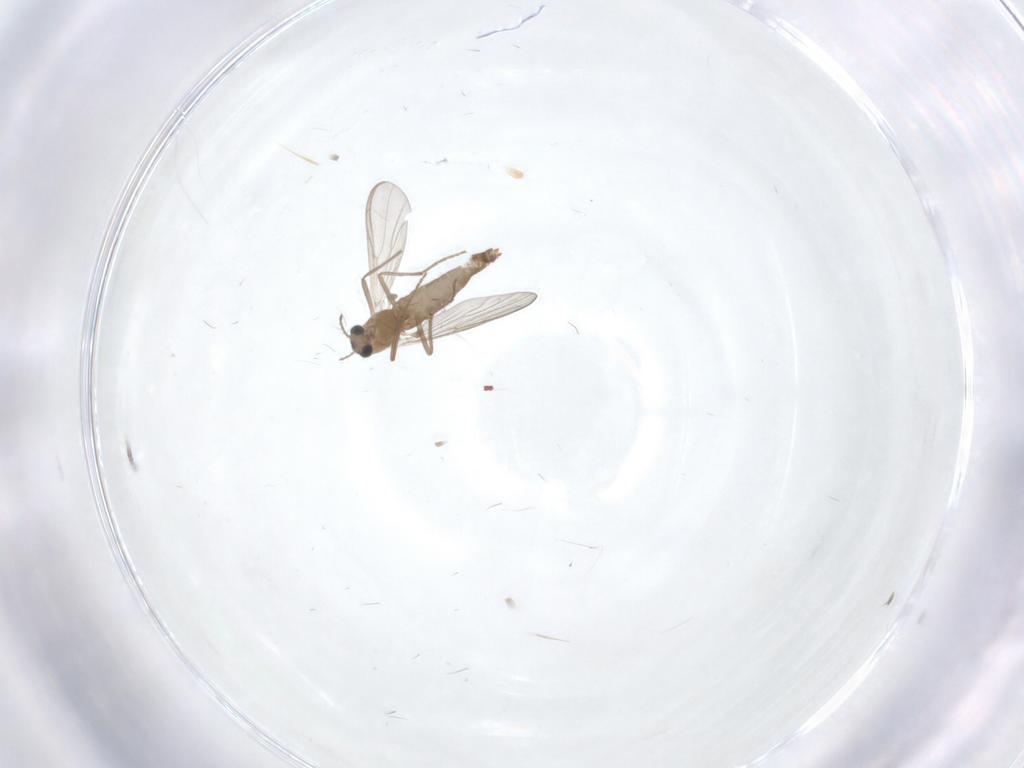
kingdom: Animalia
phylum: Arthropoda
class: Insecta
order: Diptera
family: Chironomidae
